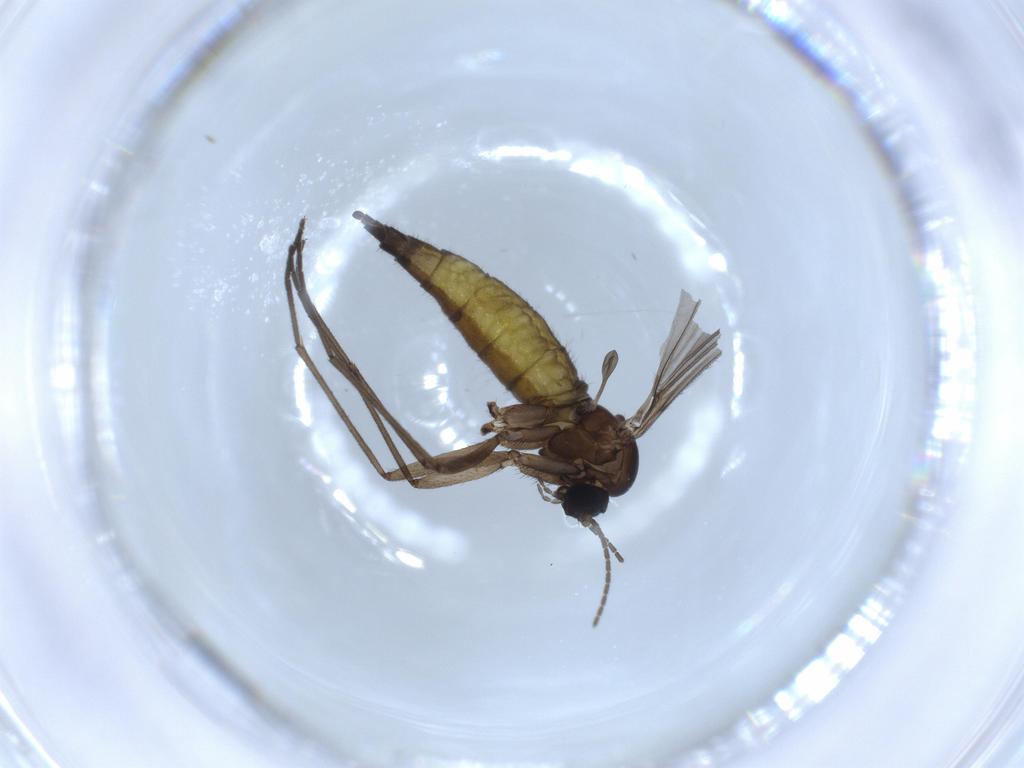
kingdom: Animalia
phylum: Arthropoda
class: Insecta
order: Diptera
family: Sciaridae
